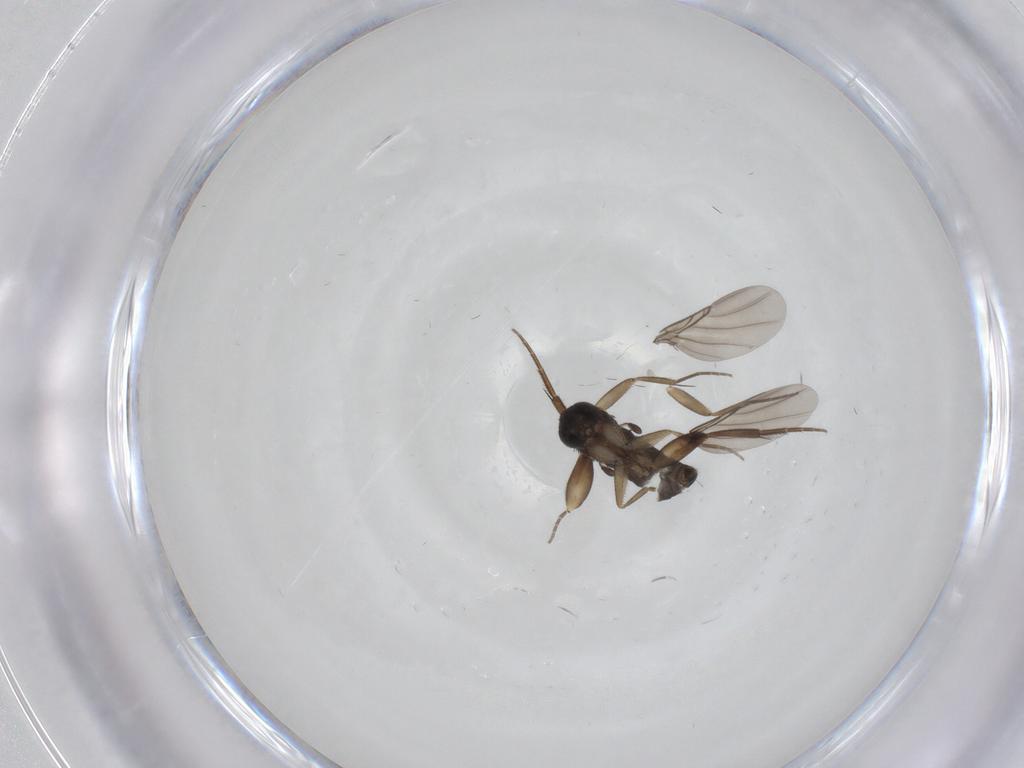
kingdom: Animalia
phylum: Arthropoda
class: Insecta
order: Diptera
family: Phoridae
